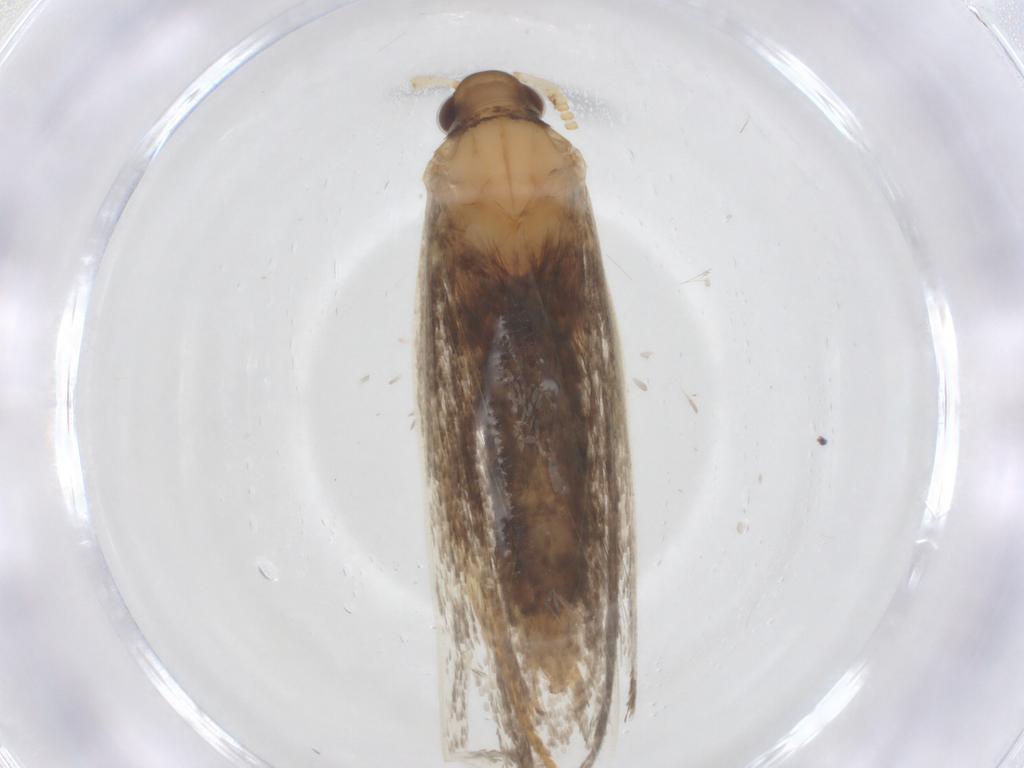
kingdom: Animalia
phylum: Arthropoda
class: Insecta
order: Lepidoptera
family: Lecithoceridae
